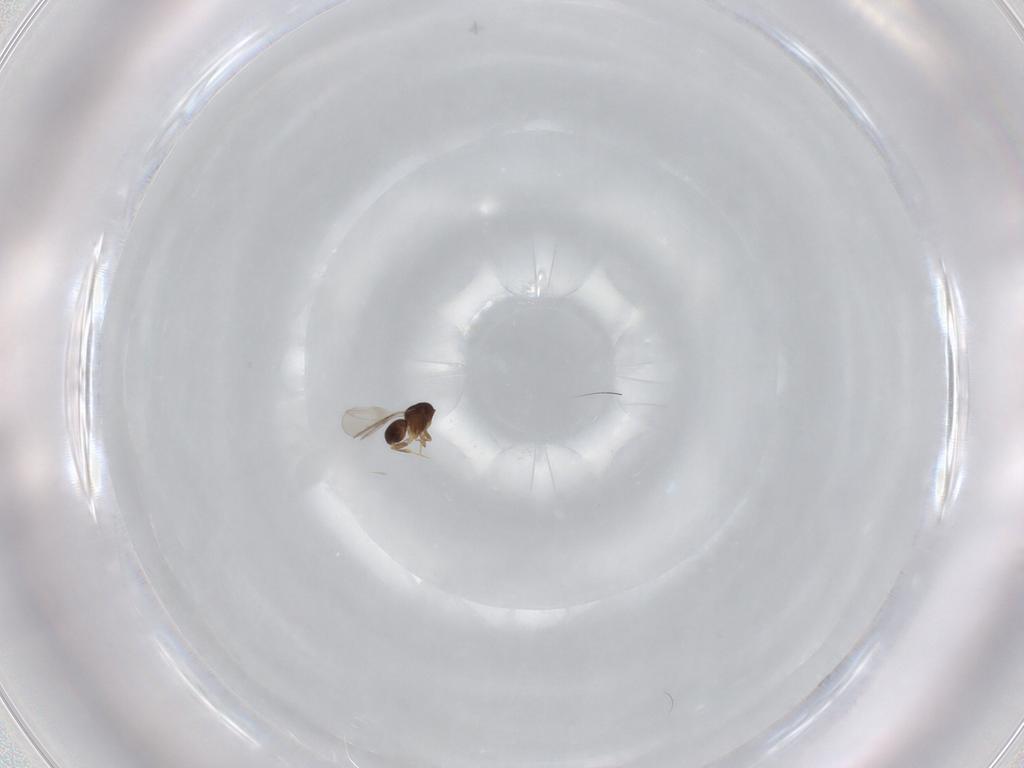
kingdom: Animalia
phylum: Arthropoda
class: Insecta
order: Hymenoptera
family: Ceraphronidae
